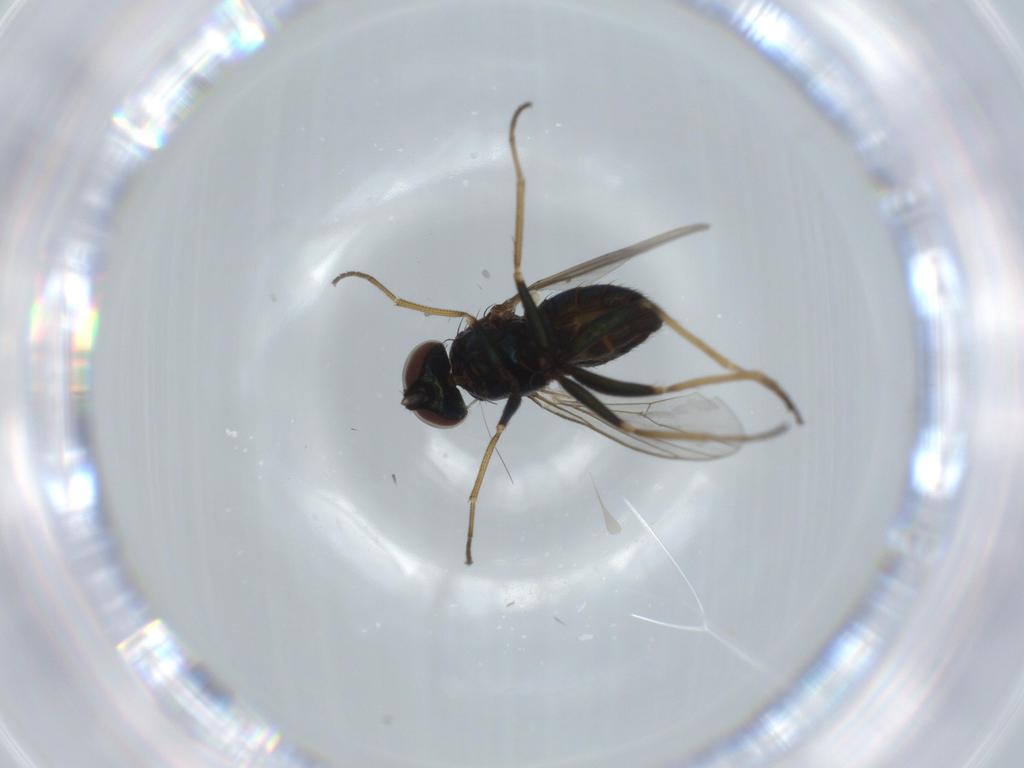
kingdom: Animalia
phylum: Arthropoda
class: Insecta
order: Diptera
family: Dolichopodidae
